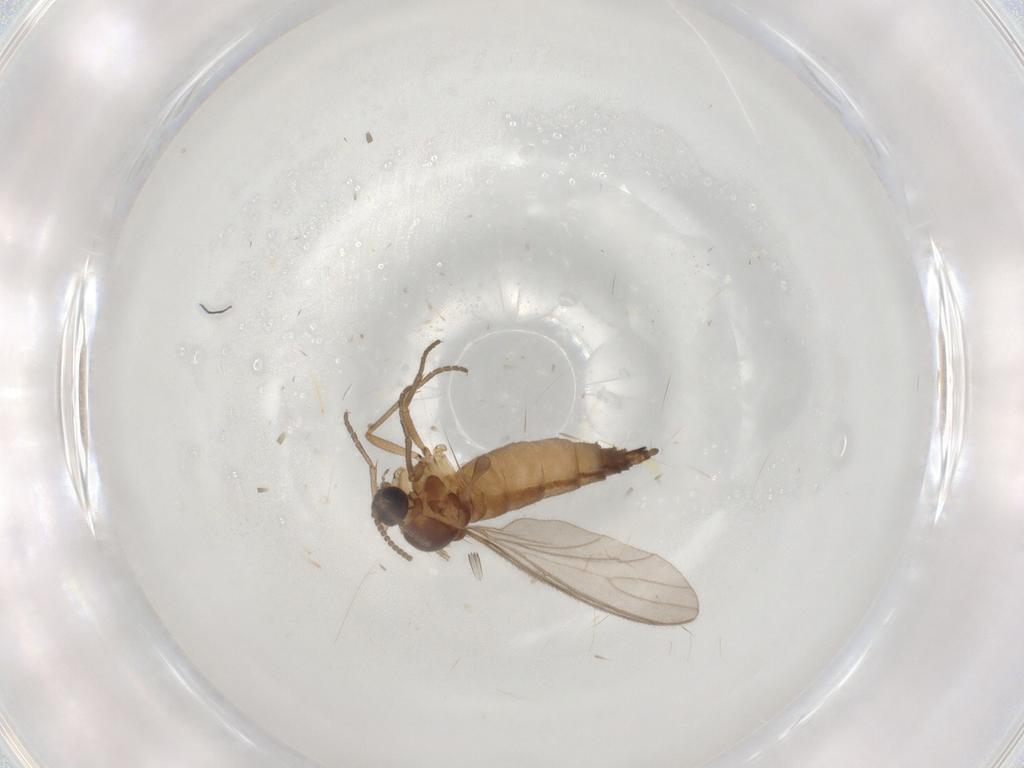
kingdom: Animalia
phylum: Arthropoda
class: Insecta
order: Diptera
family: Sciaridae
